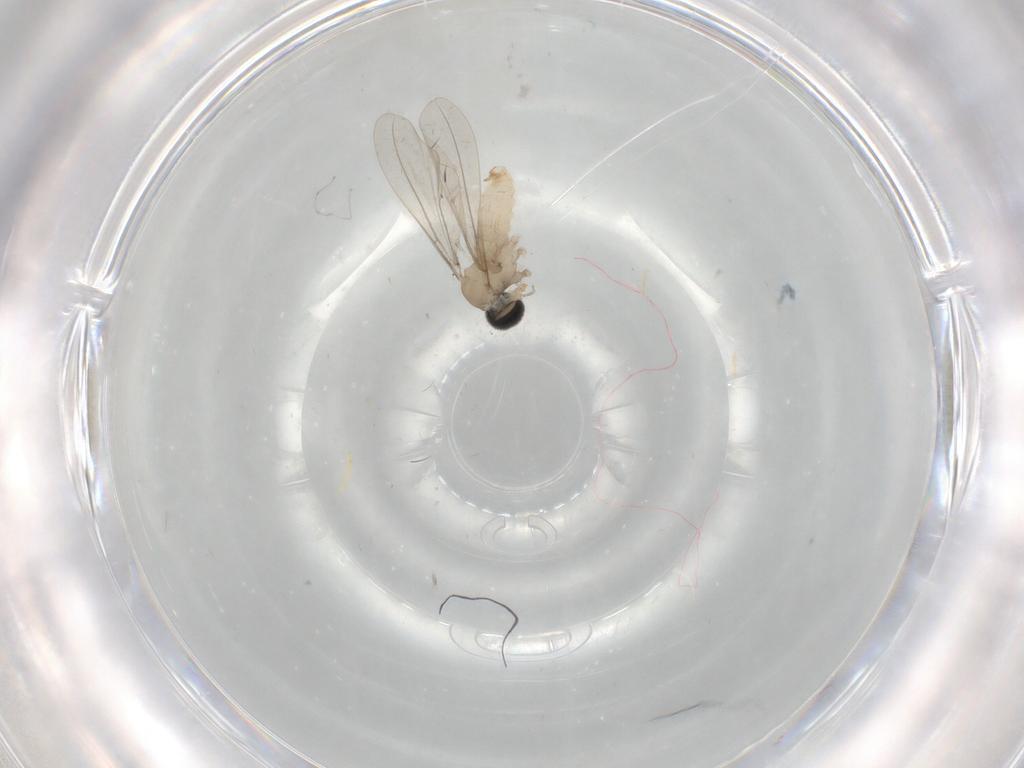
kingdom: Animalia
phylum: Arthropoda
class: Insecta
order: Diptera
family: Cecidomyiidae
